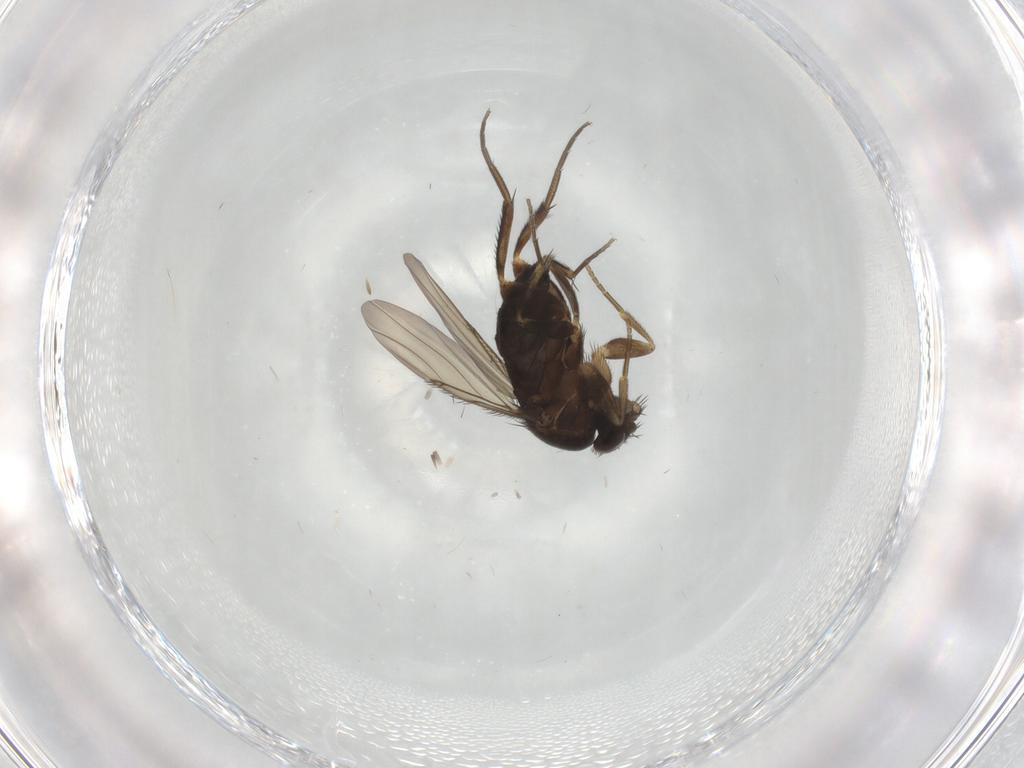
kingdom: Animalia
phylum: Arthropoda
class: Insecta
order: Diptera
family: Phoridae
